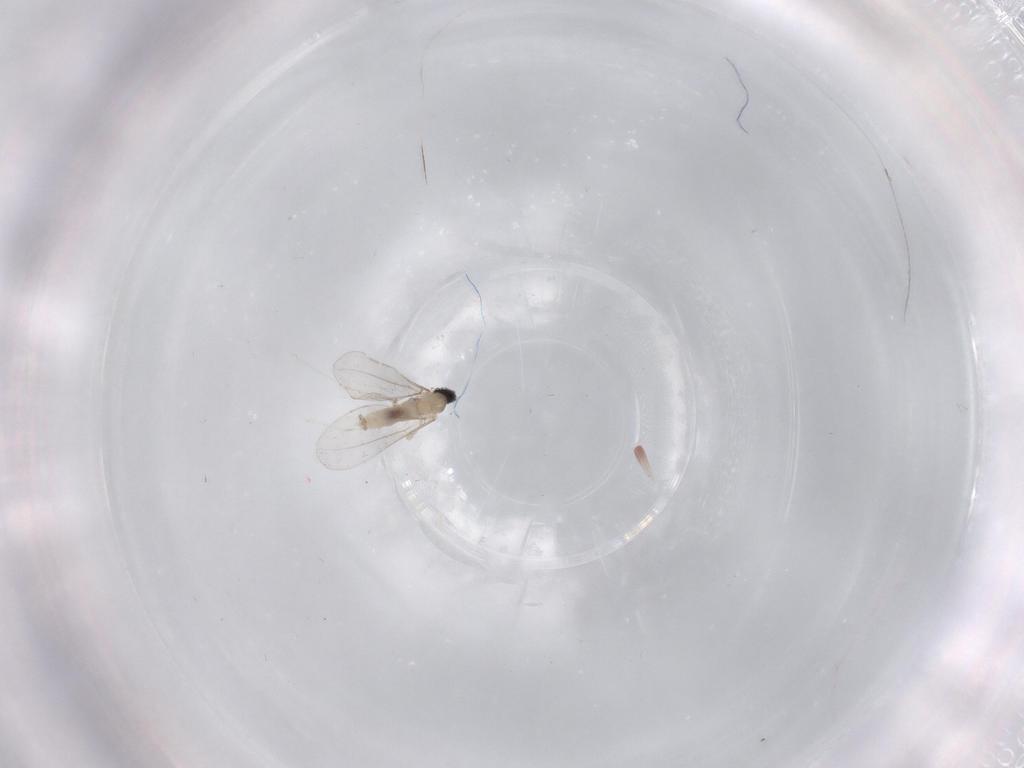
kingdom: Animalia
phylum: Arthropoda
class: Insecta
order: Diptera
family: Cecidomyiidae
